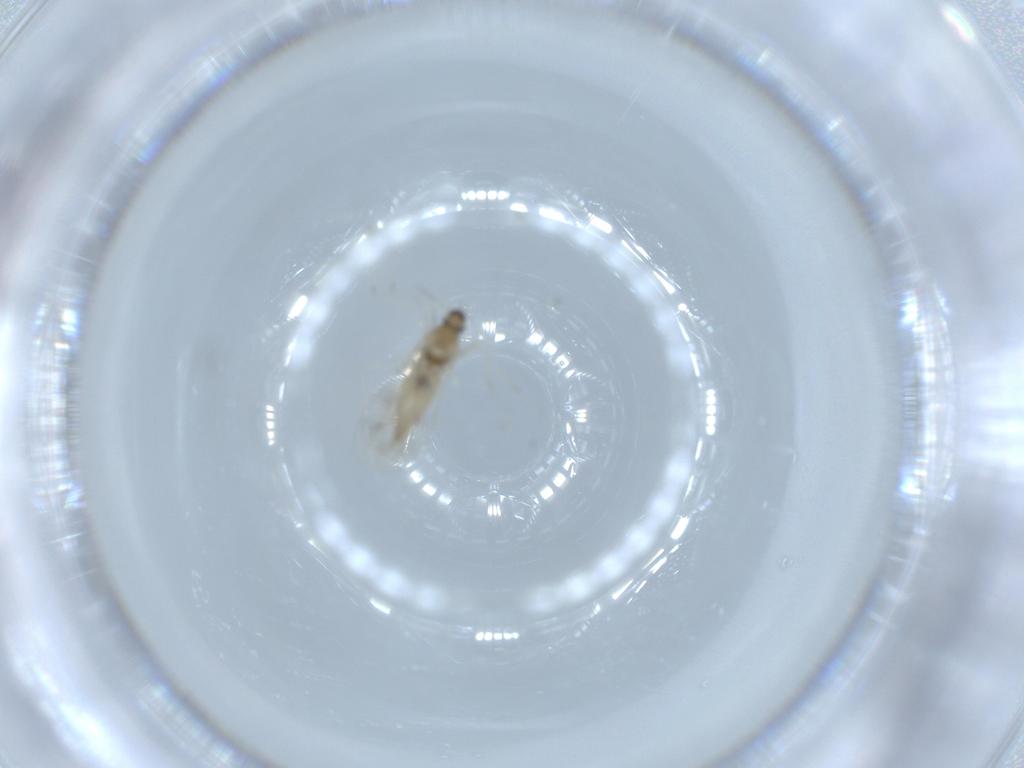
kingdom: Animalia
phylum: Arthropoda
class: Insecta
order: Diptera
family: Cecidomyiidae
